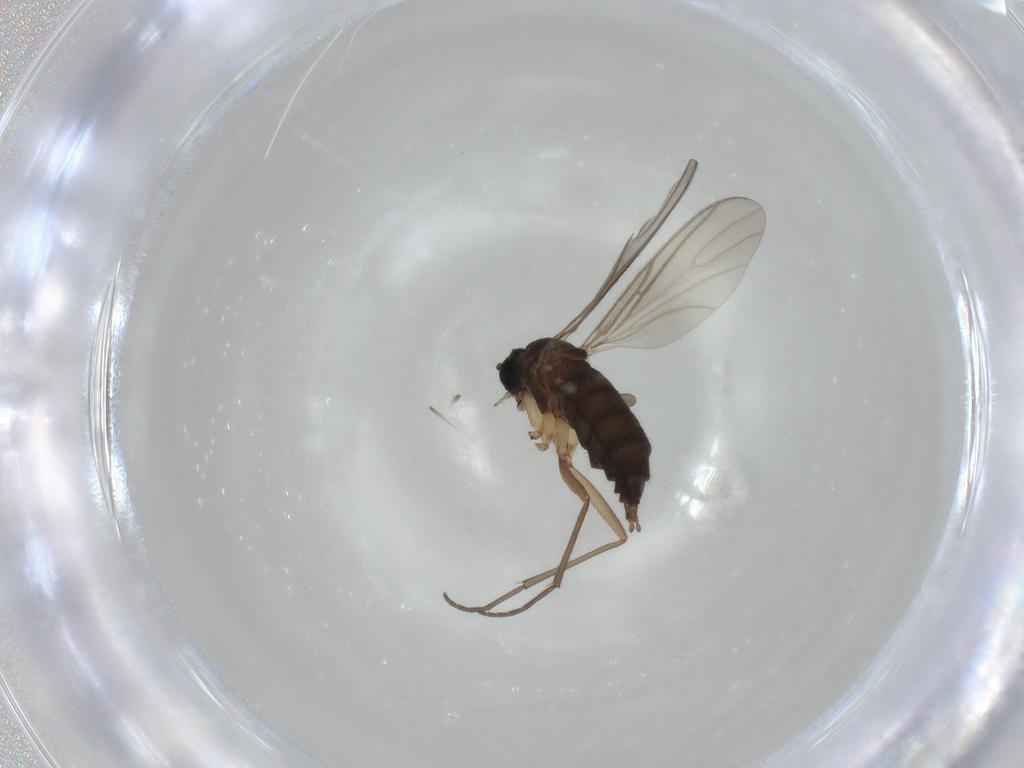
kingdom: Animalia
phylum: Arthropoda
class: Insecta
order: Diptera
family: Sciaridae
